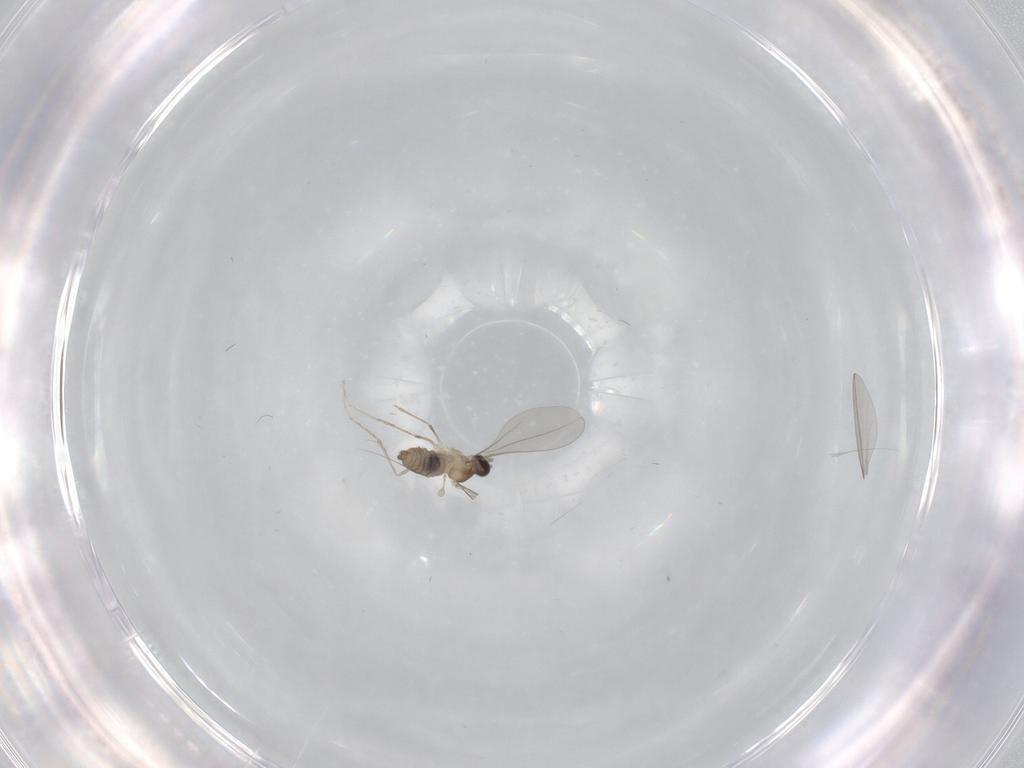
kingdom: Animalia
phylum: Arthropoda
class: Insecta
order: Diptera
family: Cecidomyiidae
